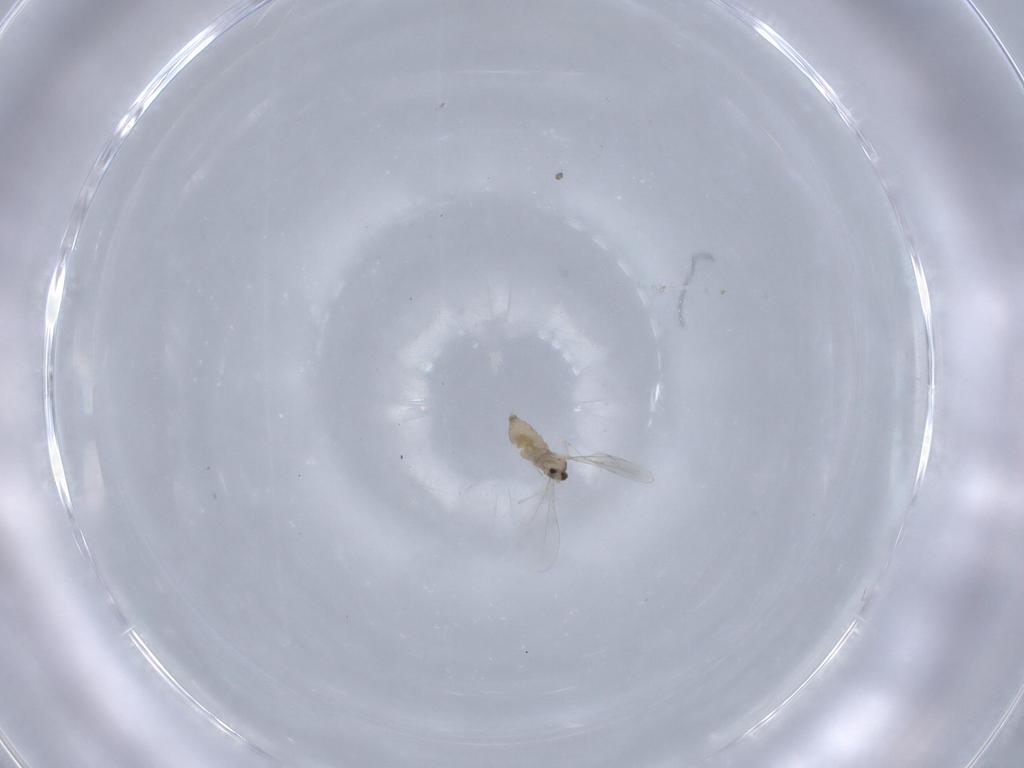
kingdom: Animalia
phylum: Arthropoda
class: Insecta
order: Diptera
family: Cecidomyiidae
